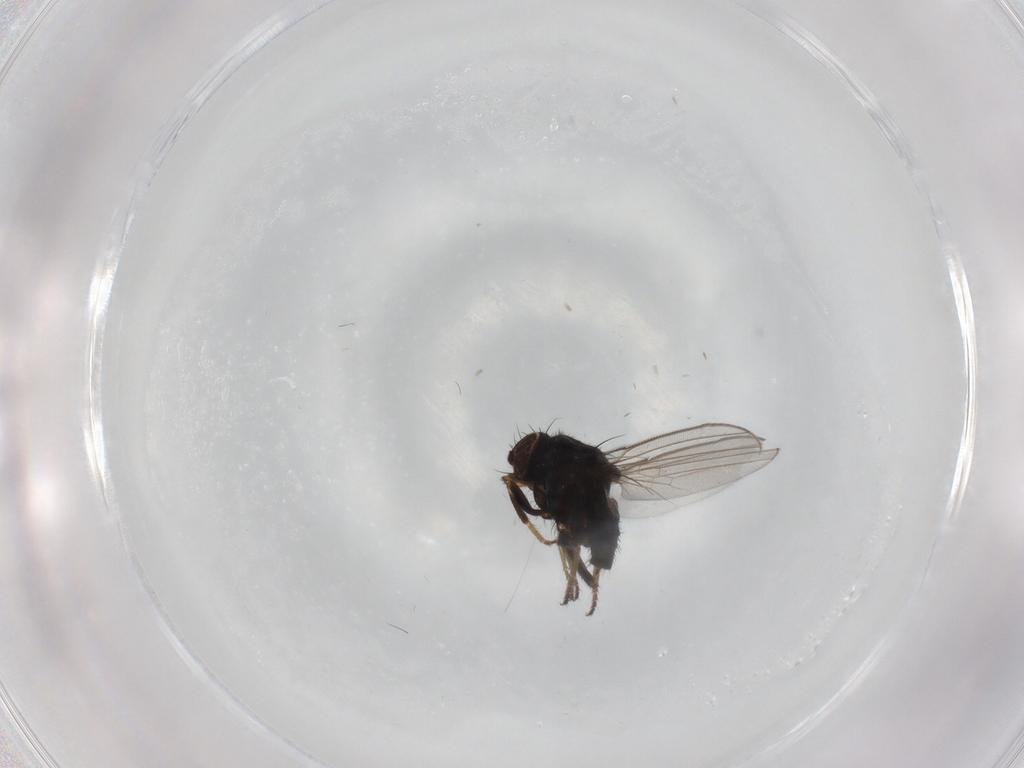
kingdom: Animalia
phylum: Arthropoda
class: Insecta
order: Diptera
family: Milichiidae
